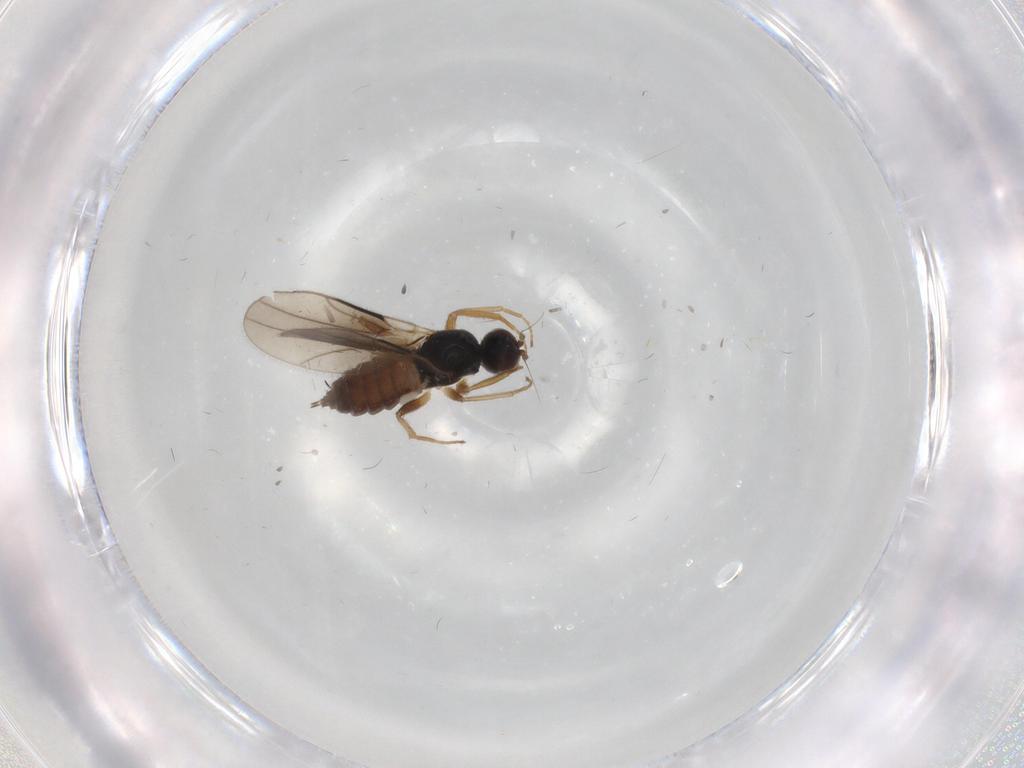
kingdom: Animalia
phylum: Arthropoda
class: Insecta
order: Diptera
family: Hybotidae
